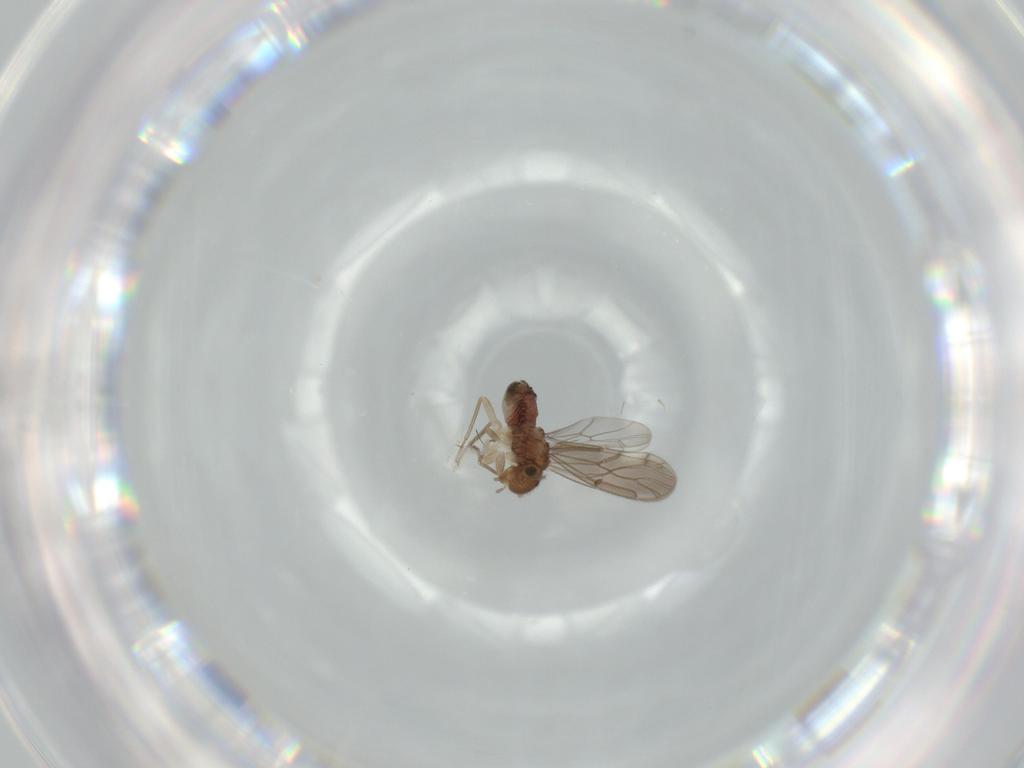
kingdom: Animalia
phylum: Arthropoda
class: Insecta
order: Psocodea
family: Ectopsocidae
